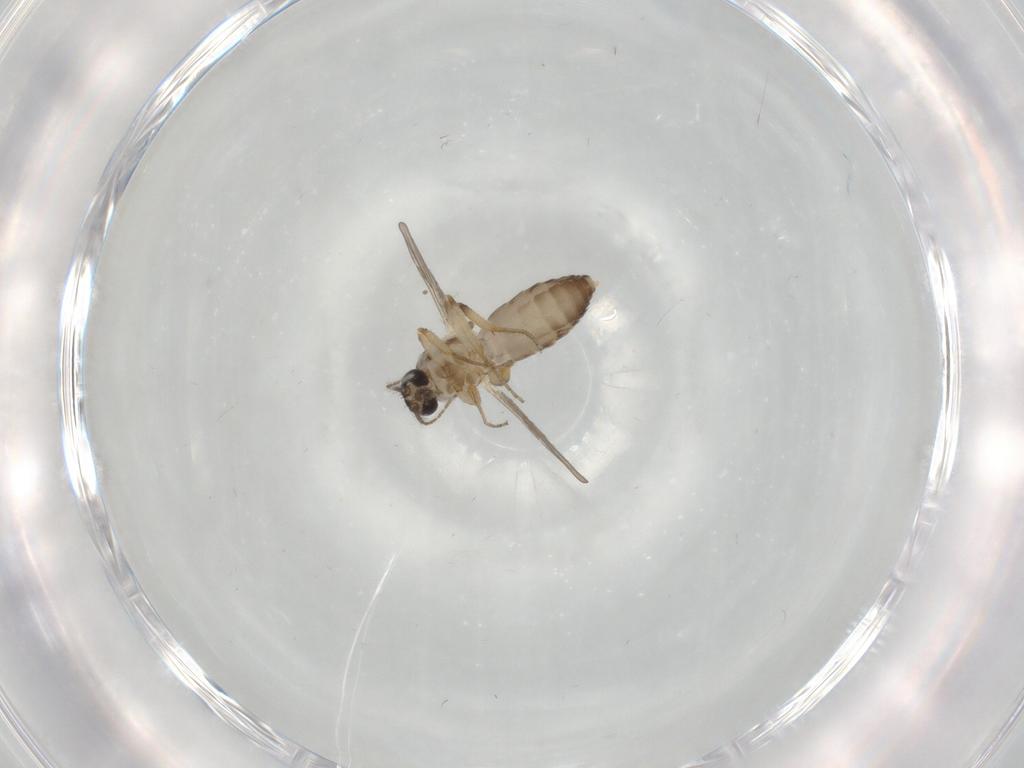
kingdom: Animalia
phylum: Arthropoda
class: Insecta
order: Diptera
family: Ceratopogonidae
